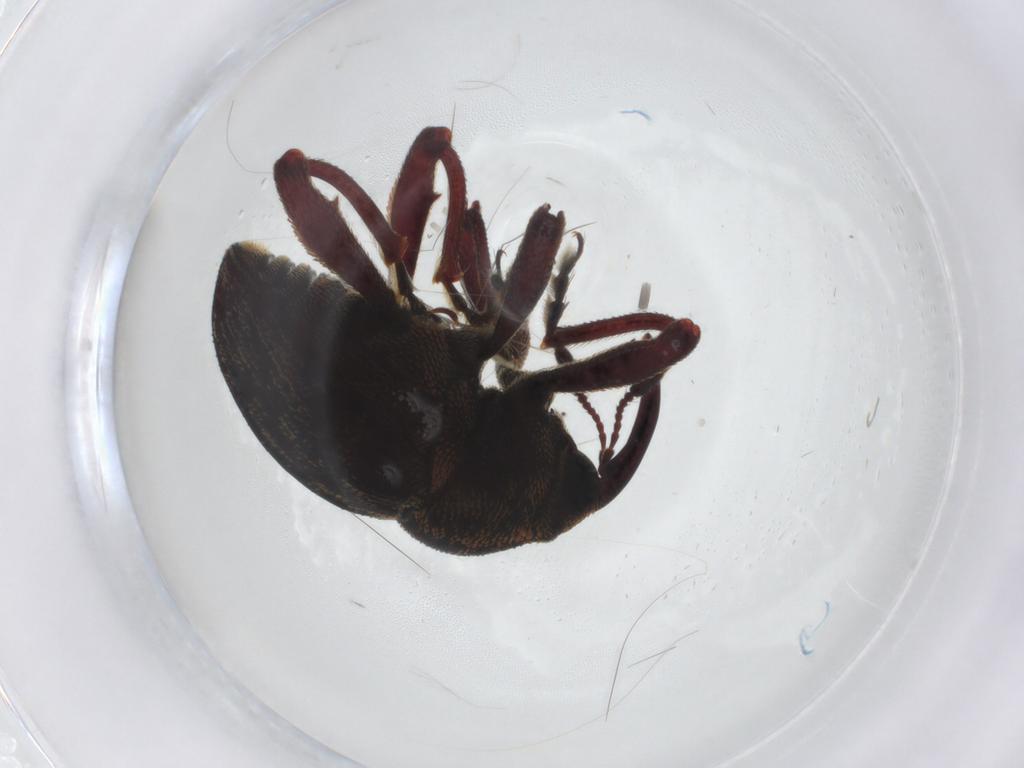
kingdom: Animalia
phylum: Arthropoda
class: Insecta
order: Coleoptera
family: Curculionidae
